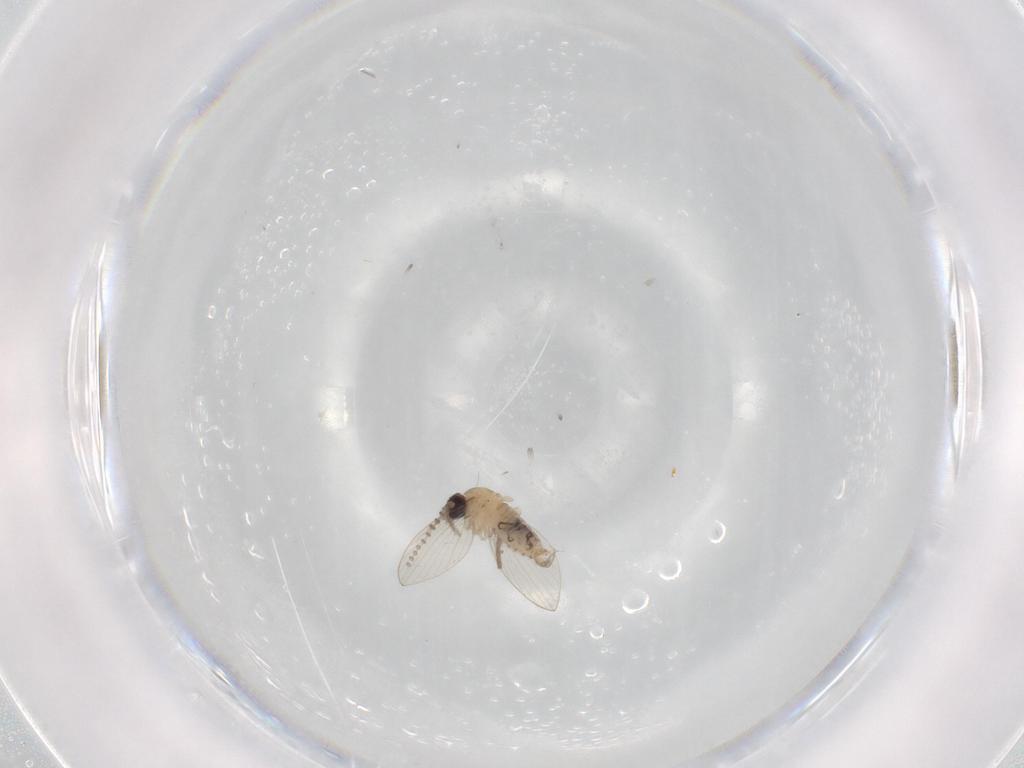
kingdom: Animalia
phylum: Arthropoda
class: Insecta
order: Diptera
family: Psychodidae
